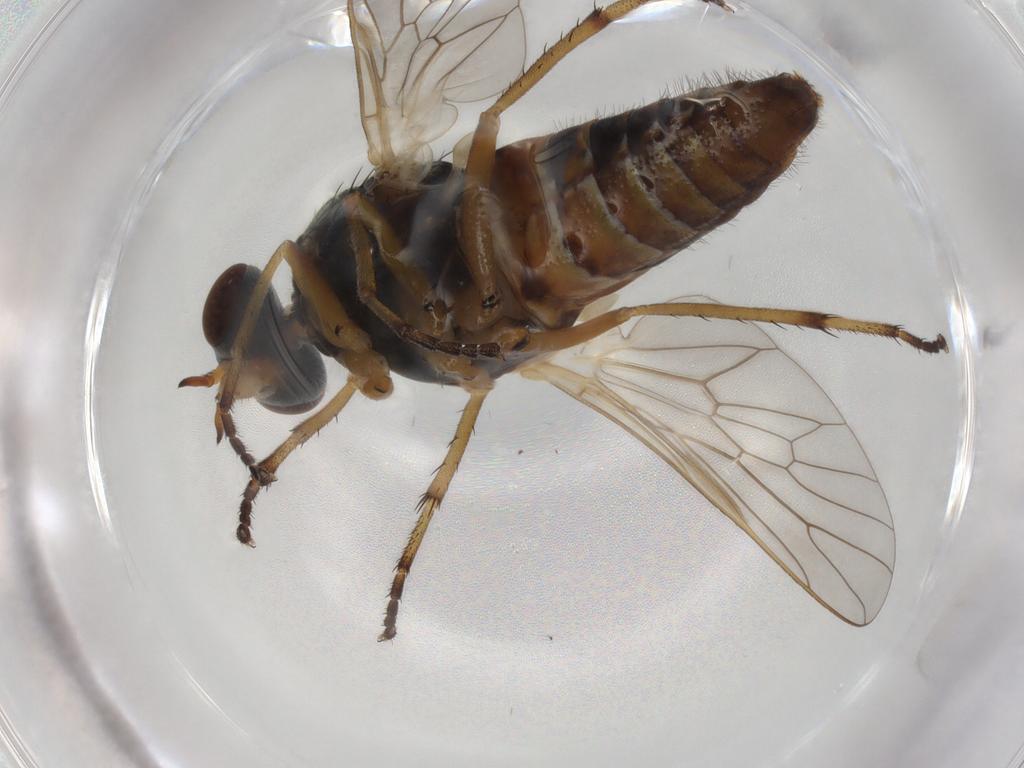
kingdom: Animalia
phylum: Arthropoda
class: Insecta
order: Diptera
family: Therevidae
